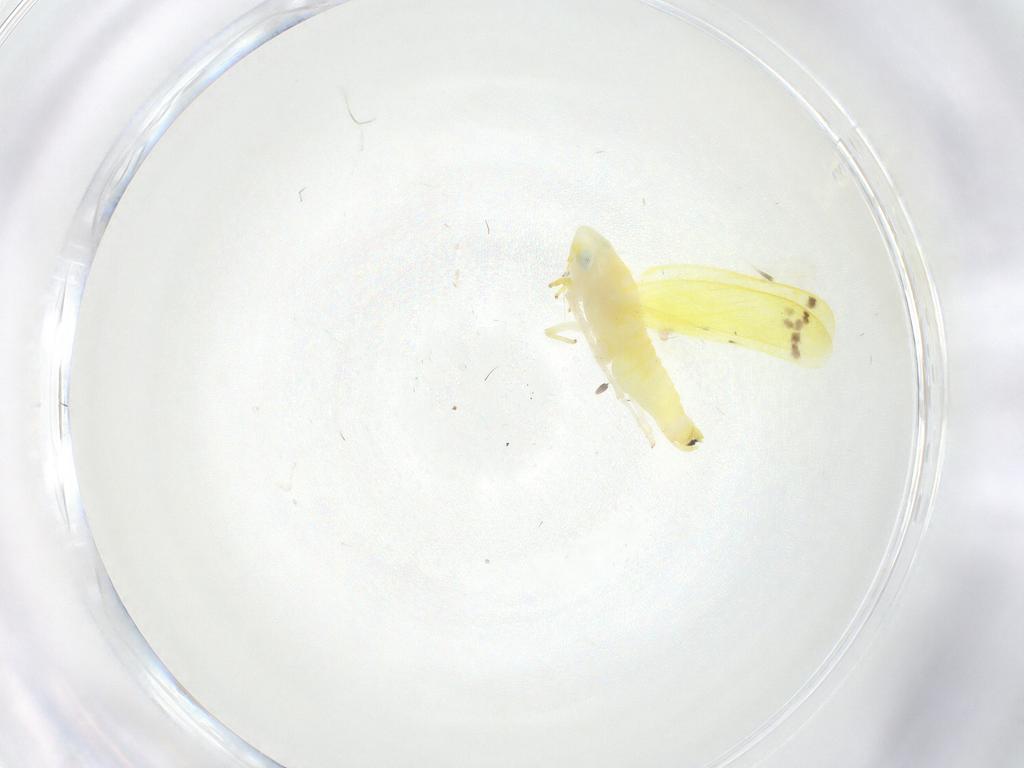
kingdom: Animalia
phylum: Arthropoda
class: Insecta
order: Hemiptera
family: Cicadellidae
